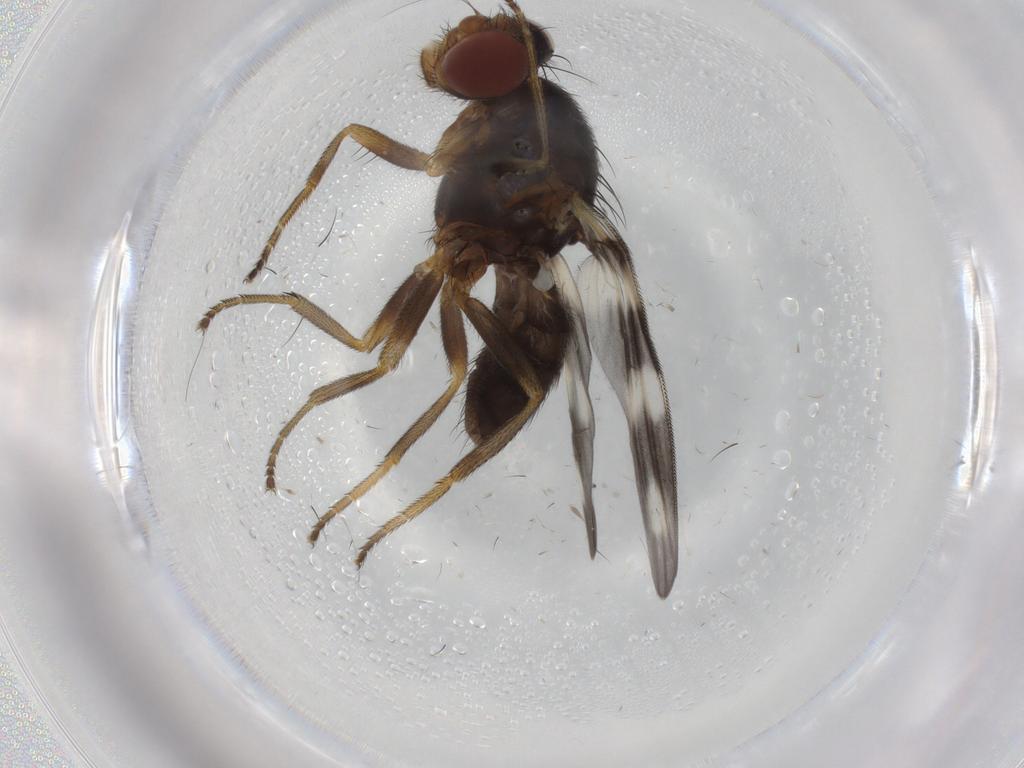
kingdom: Animalia
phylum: Arthropoda
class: Insecta
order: Diptera
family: Ulidiidae
